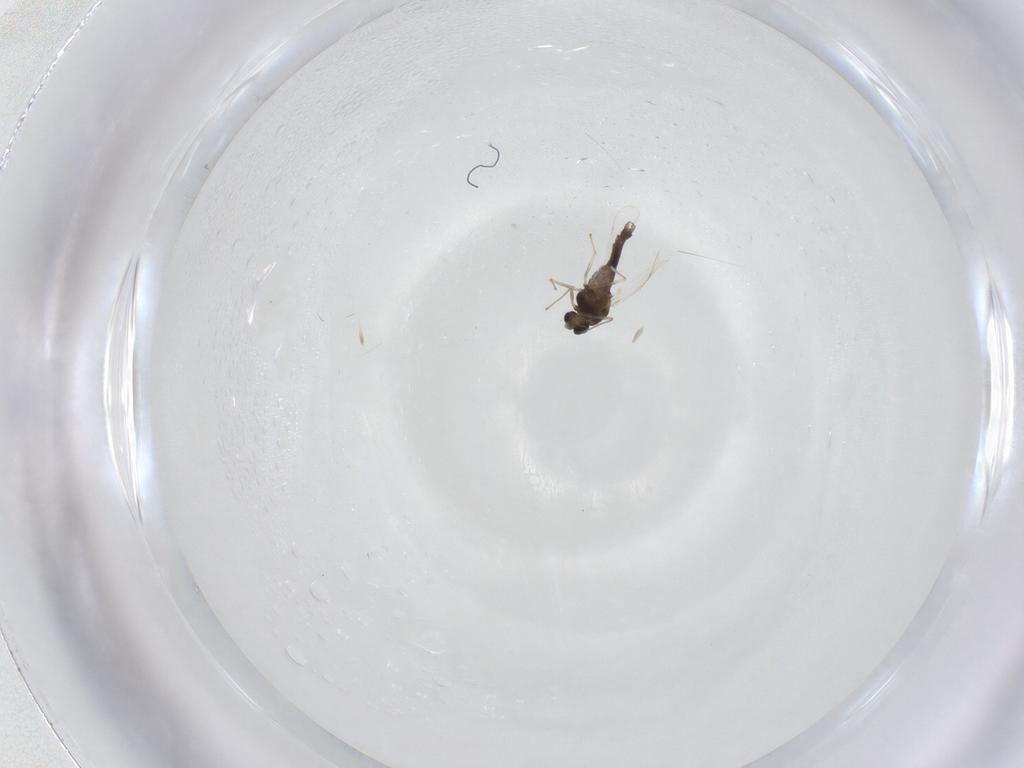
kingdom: Animalia
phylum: Arthropoda
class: Insecta
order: Diptera
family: Chironomidae
